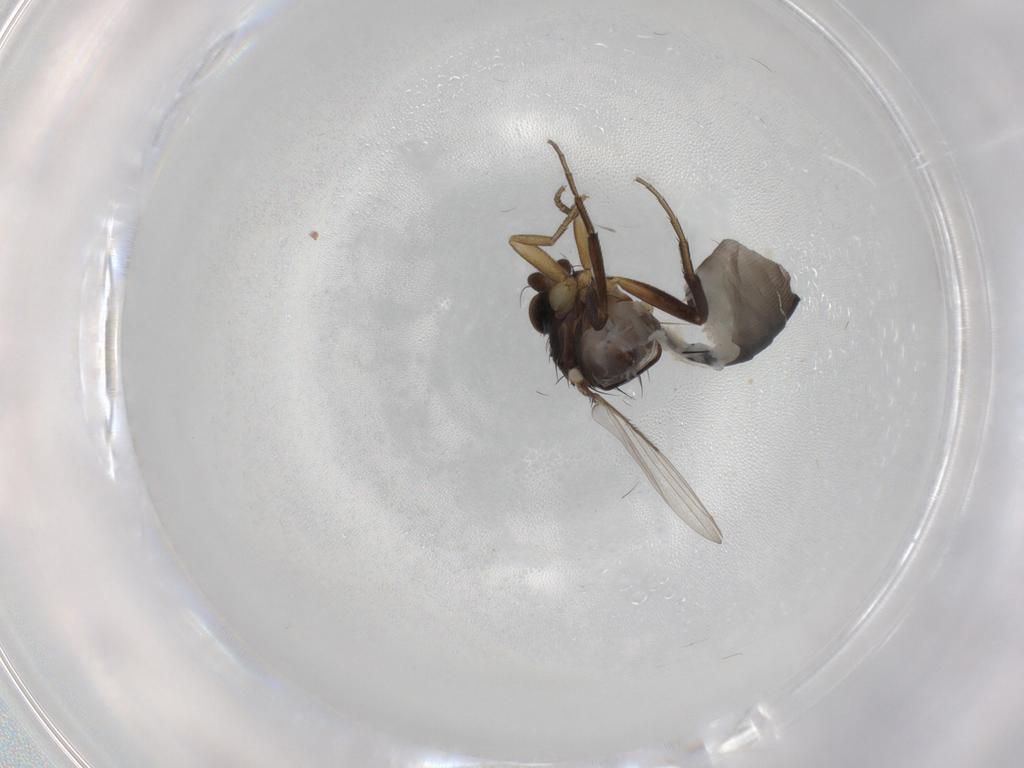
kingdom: Animalia
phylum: Arthropoda
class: Insecta
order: Diptera
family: Phoridae
